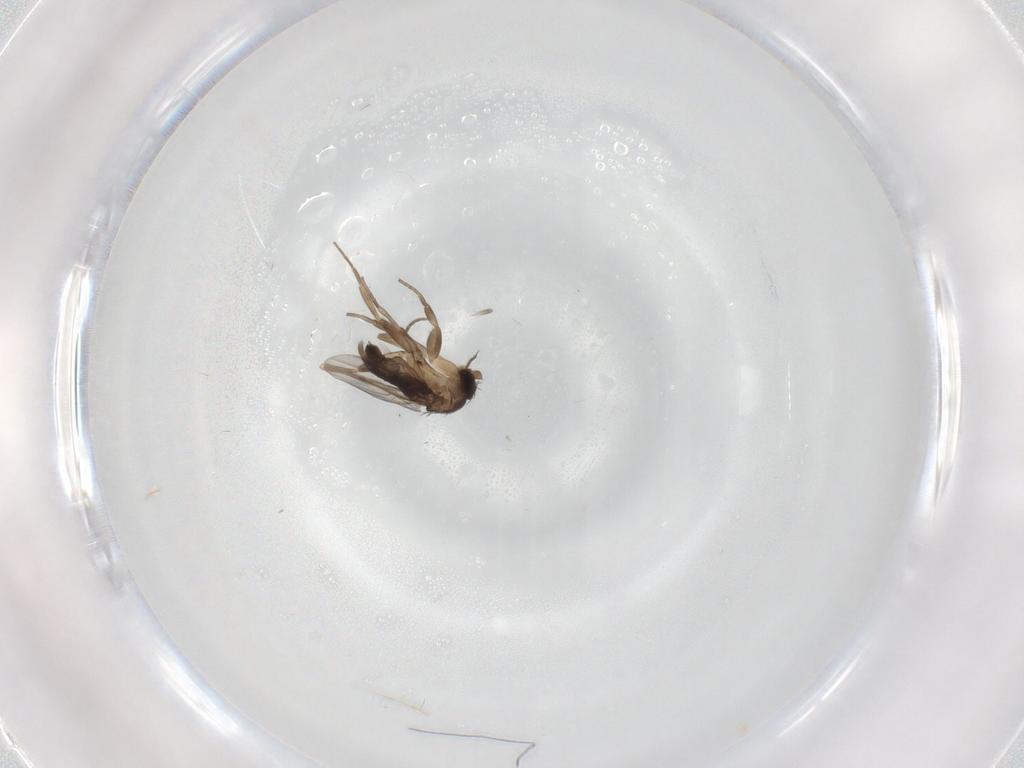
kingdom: Animalia
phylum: Arthropoda
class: Insecta
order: Diptera
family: Phoridae
